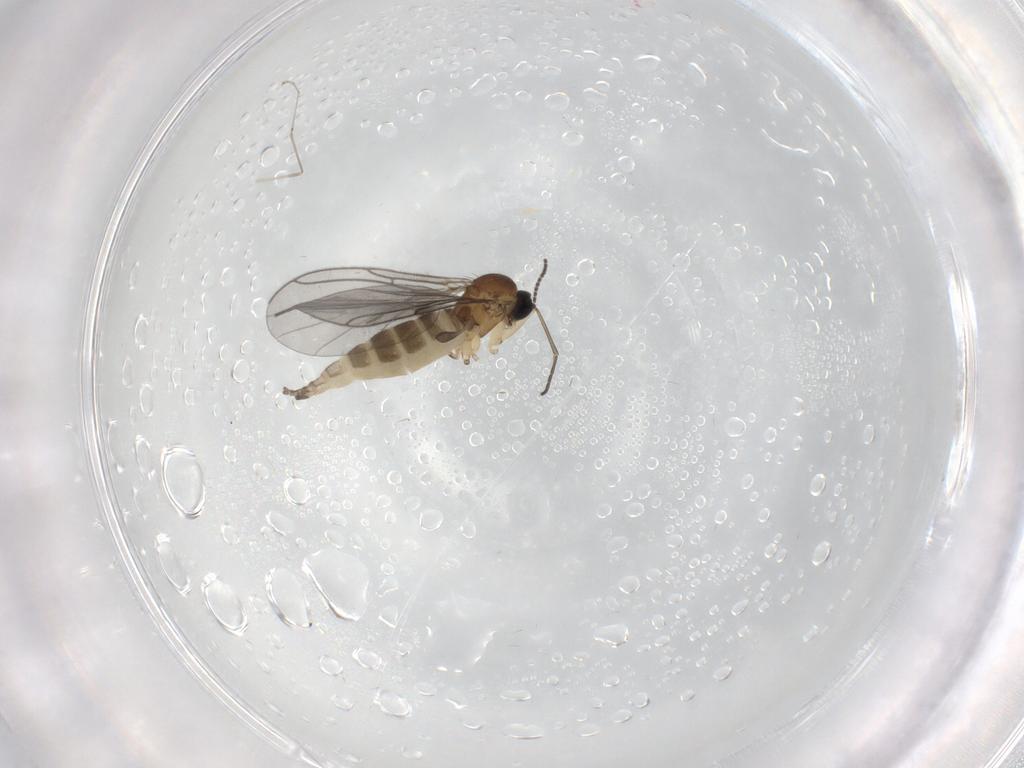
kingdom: Animalia
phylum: Arthropoda
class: Insecta
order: Diptera
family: Sciaridae
